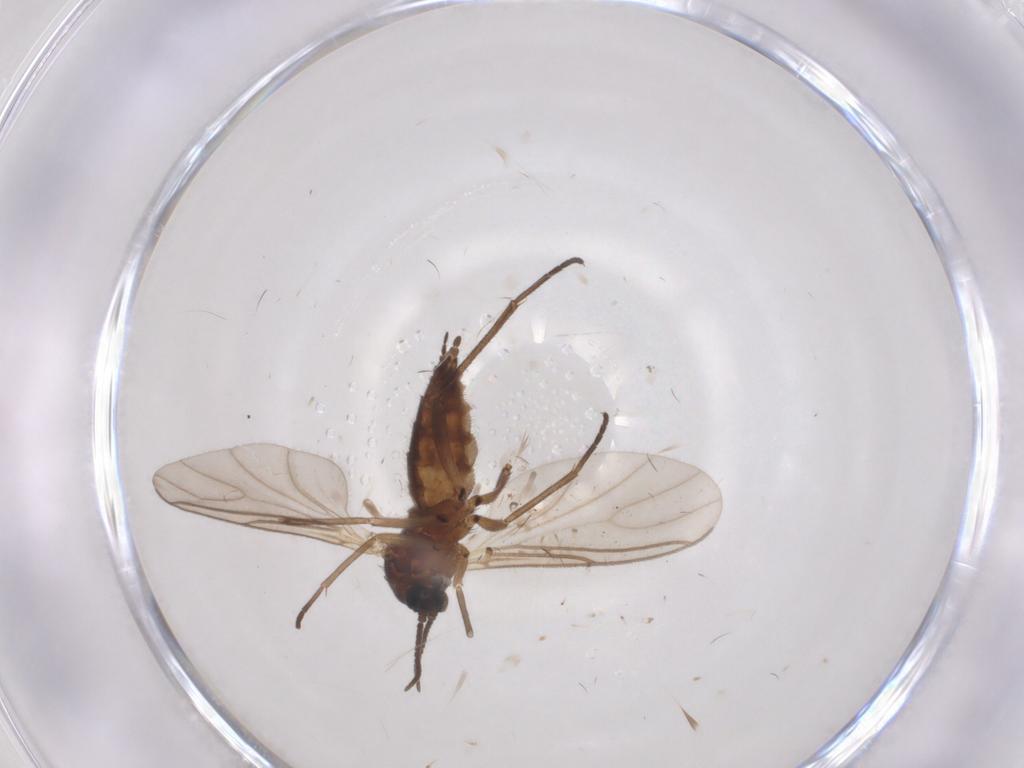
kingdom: Animalia
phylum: Arthropoda
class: Insecta
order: Diptera
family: Sciaridae
